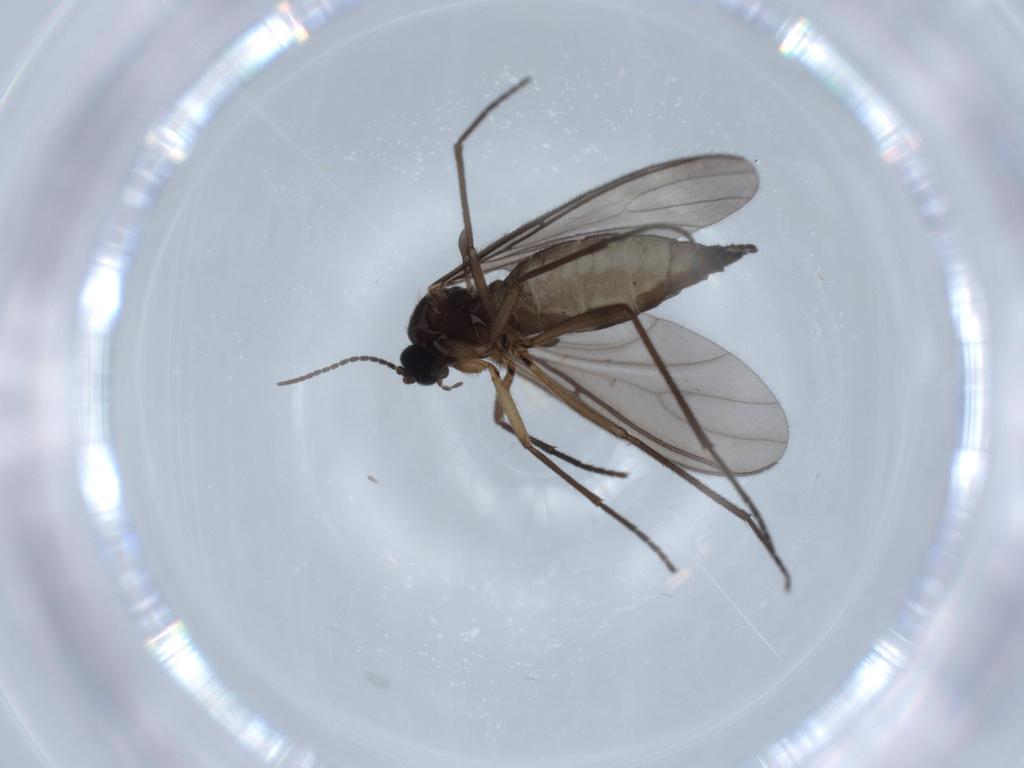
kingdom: Animalia
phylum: Arthropoda
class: Insecta
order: Diptera
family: Sciaridae
